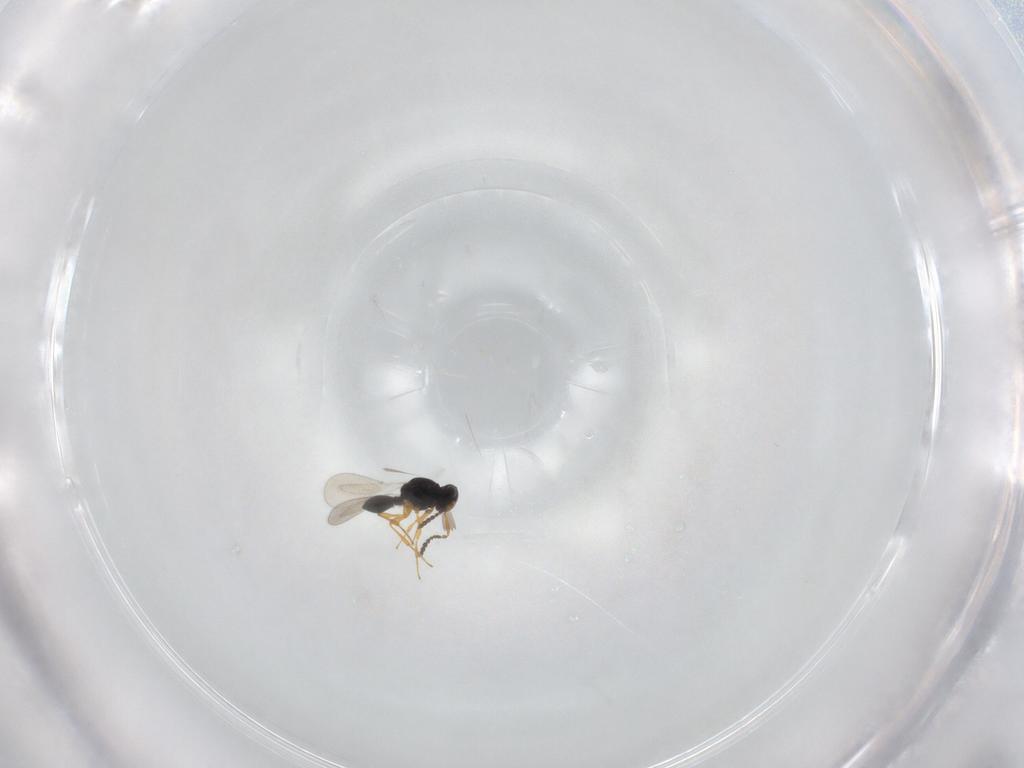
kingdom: Animalia
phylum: Arthropoda
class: Insecta
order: Hymenoptera
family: Platygastridae
